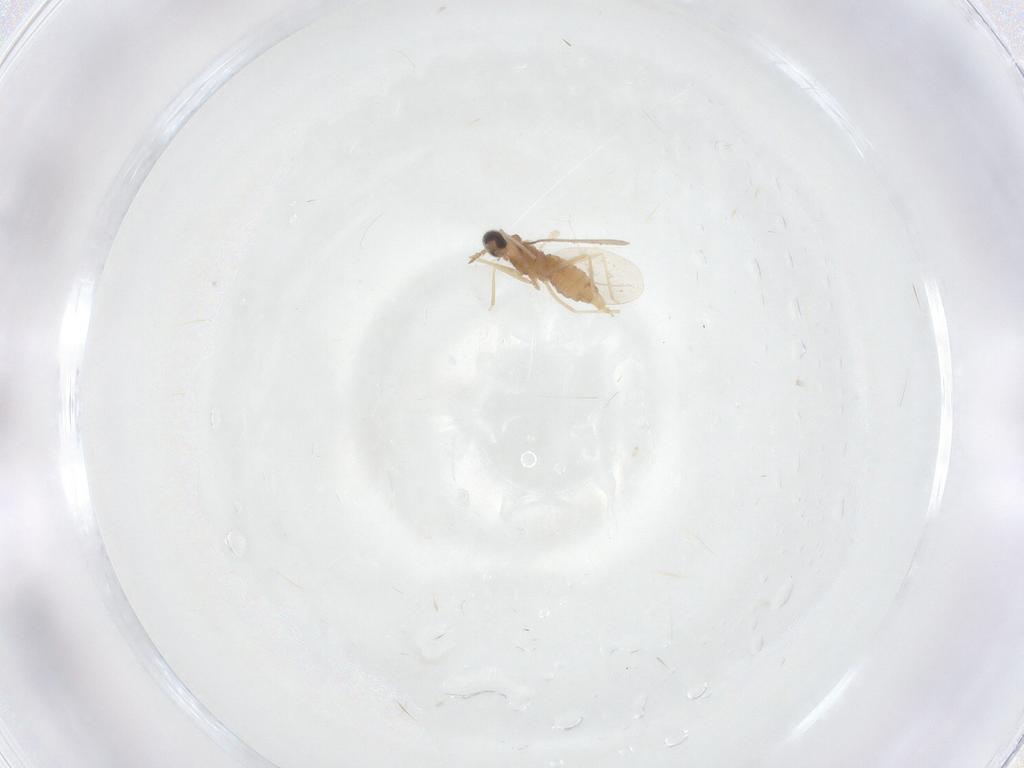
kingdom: Animalia
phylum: Arthropoda
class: Insecta
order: Diptera
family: Cecidomyiidae
